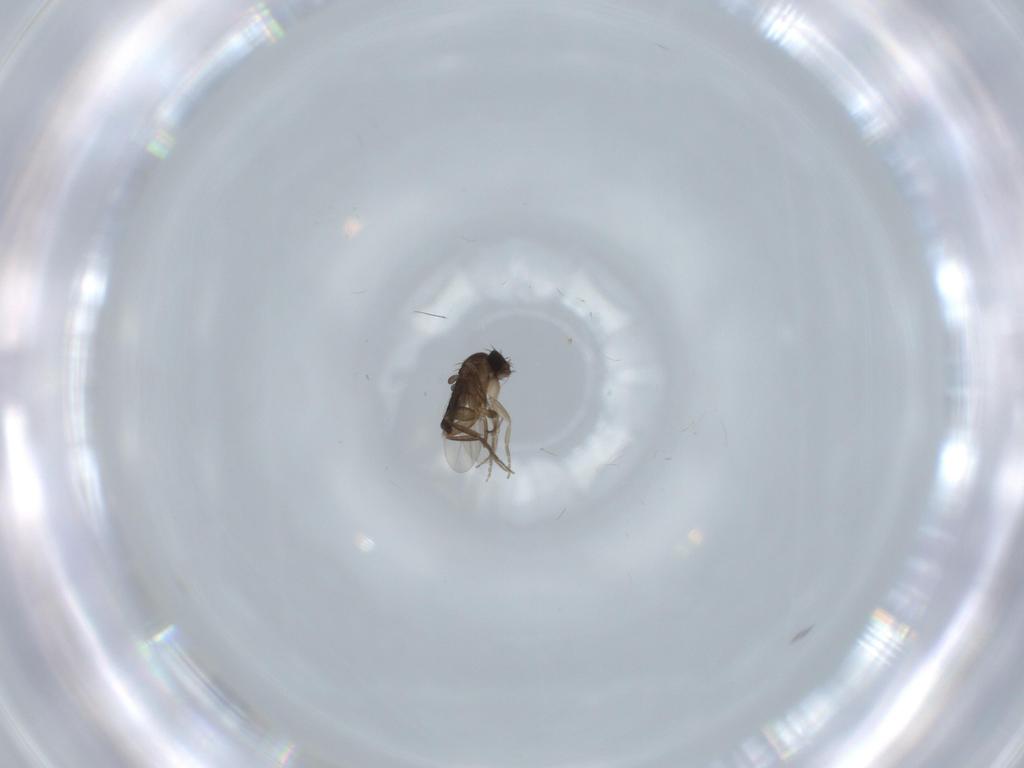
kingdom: Animalia
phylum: Arthropoda
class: Insecta
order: Diptera
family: Phoridae
